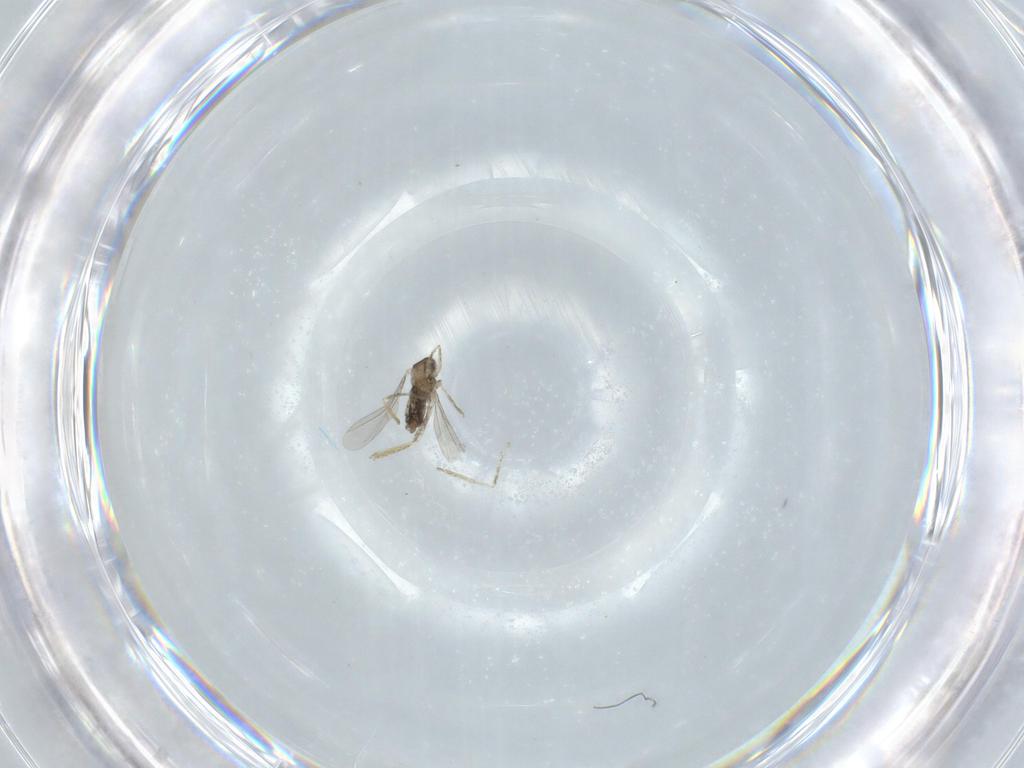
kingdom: Animalia
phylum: Arthropoda
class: Insecta
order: Diptera
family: Cecidomyiidae
